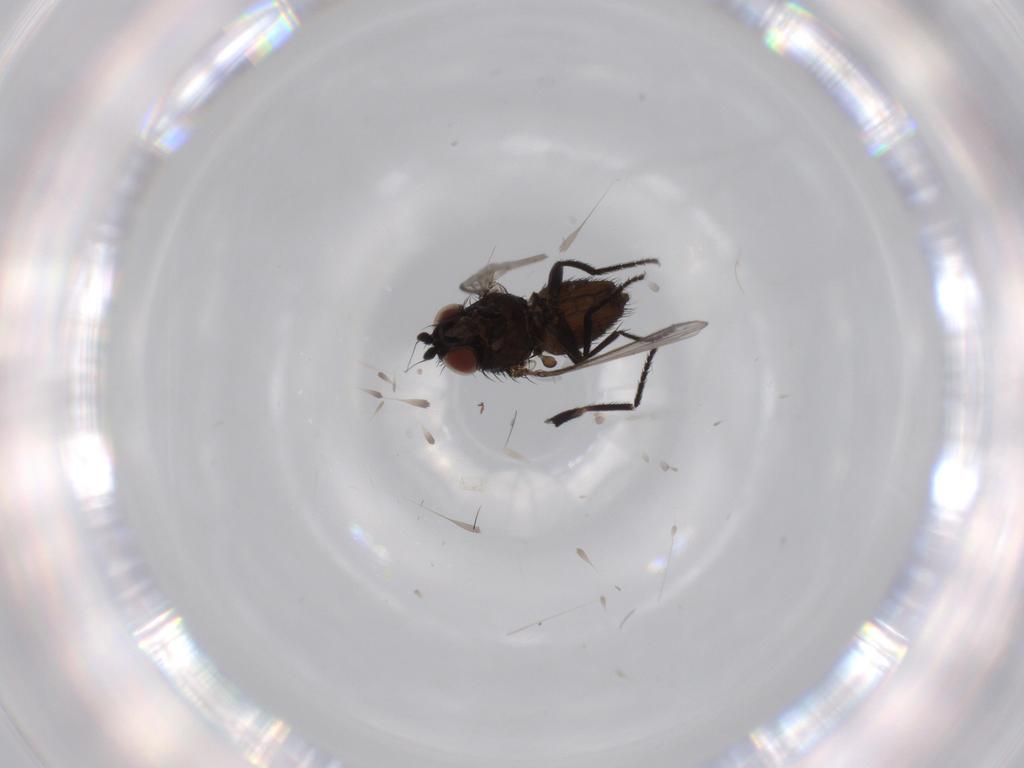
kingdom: Animalia
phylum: Arthropoda
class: Insecta
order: Diptera
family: Milichiidae
